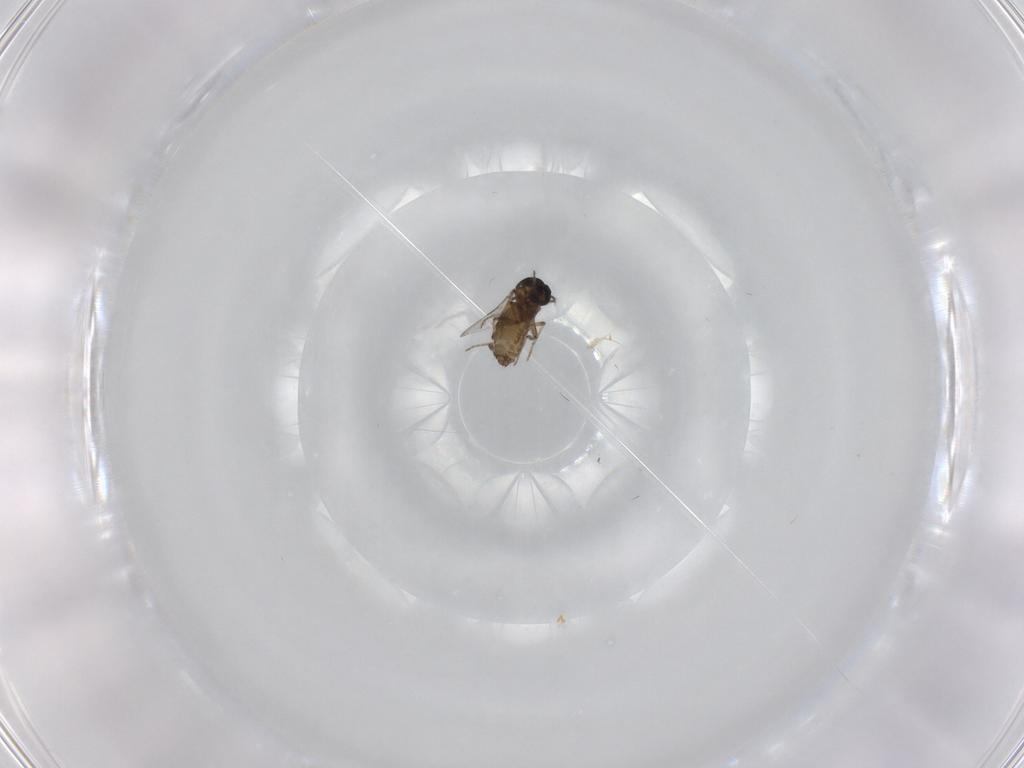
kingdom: Animalia
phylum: Arthropoda
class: Insecta
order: Diptera
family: Ceratopogonidae
